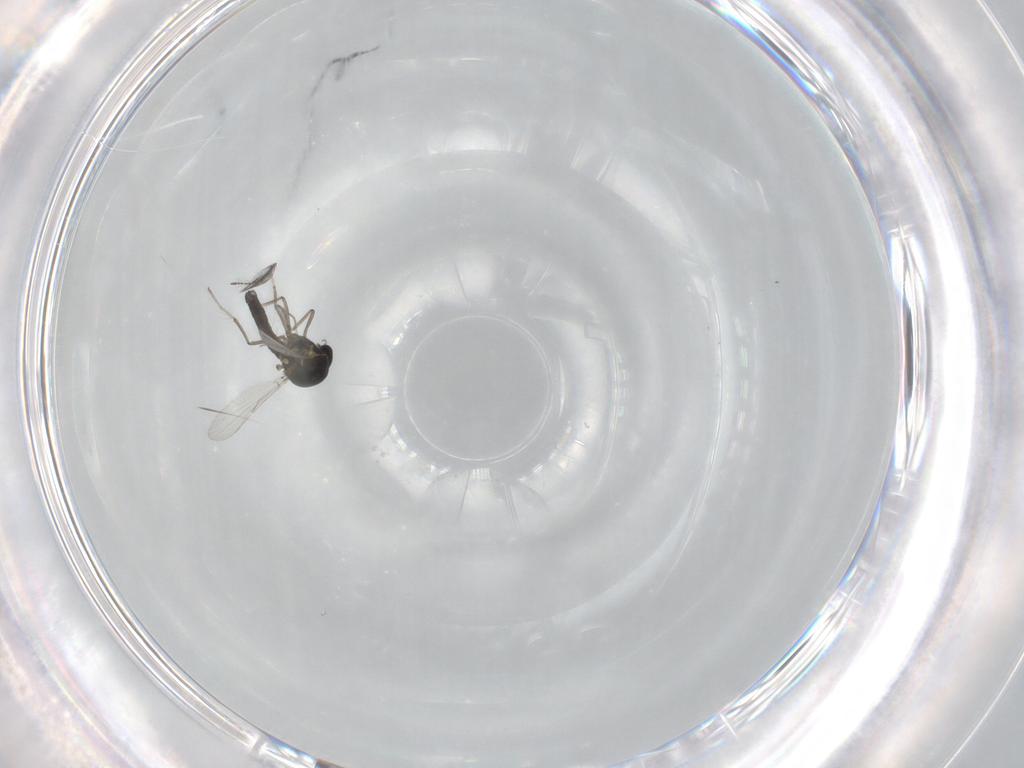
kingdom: Animalia
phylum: Arthropoda
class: Insecta
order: Diptera
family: Ceratopogonidae
